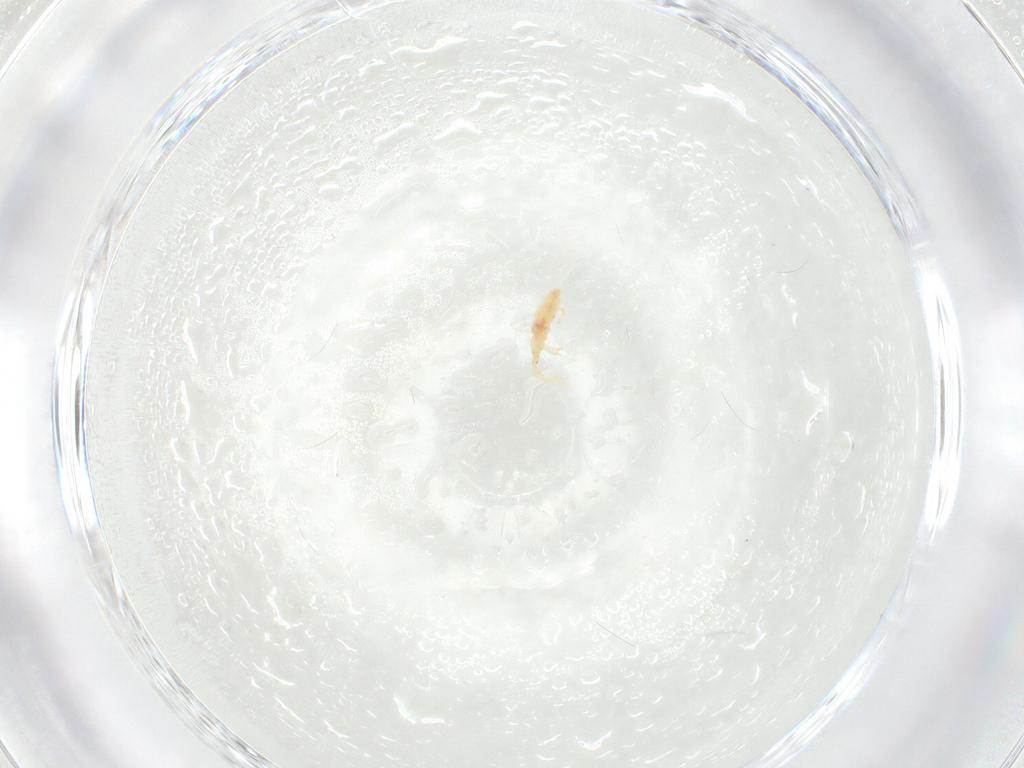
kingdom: Animalia
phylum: Arthropoda
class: Arachnida
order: Trombidiformes
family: Erythraeidae
